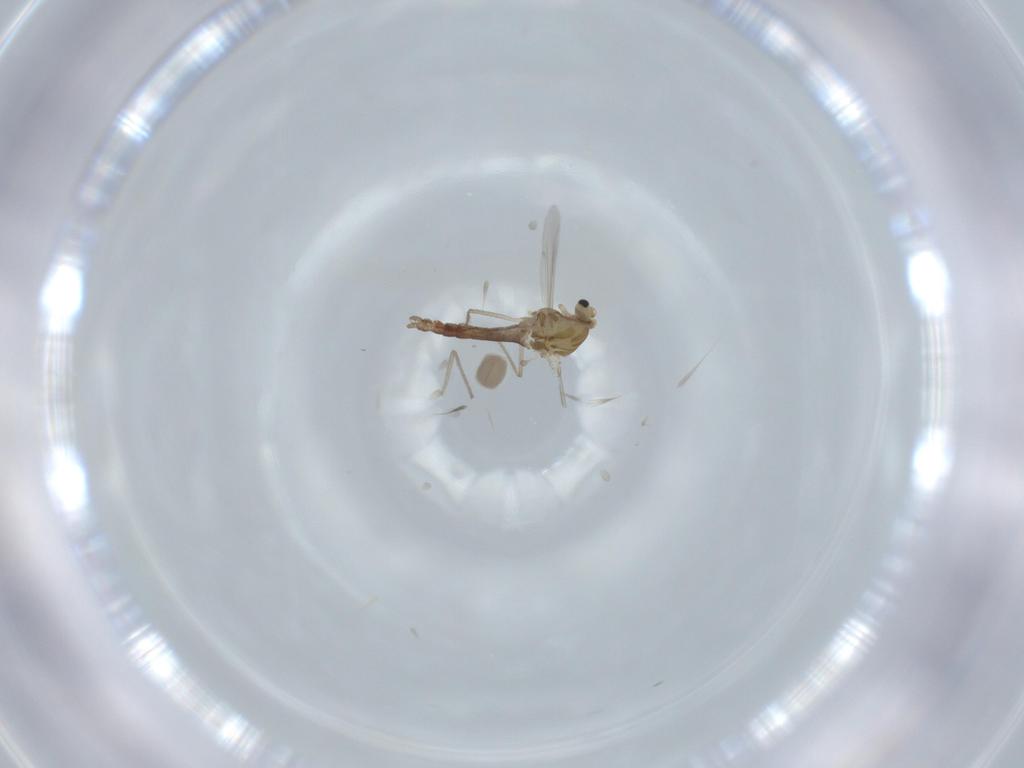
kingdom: Animalia
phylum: Arthropoda
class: Insecta
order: Diptera
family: Chironomidae
